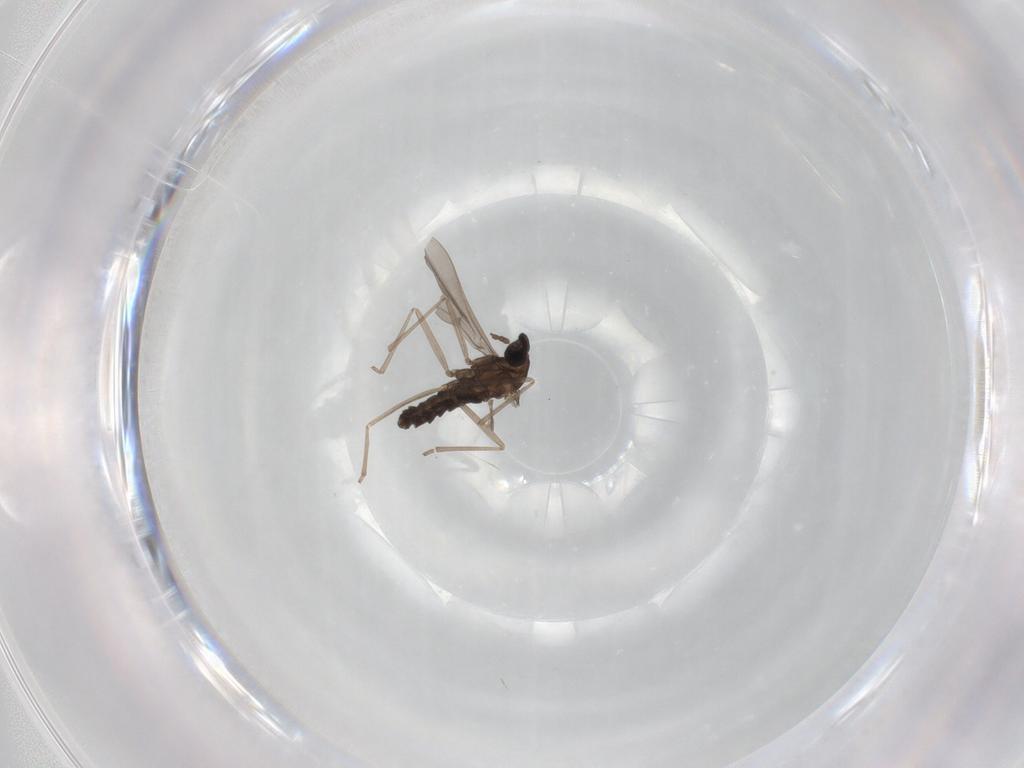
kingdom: Animalia
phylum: Arthropoda
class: Insecta
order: Diptera
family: Cecidomyiidae
